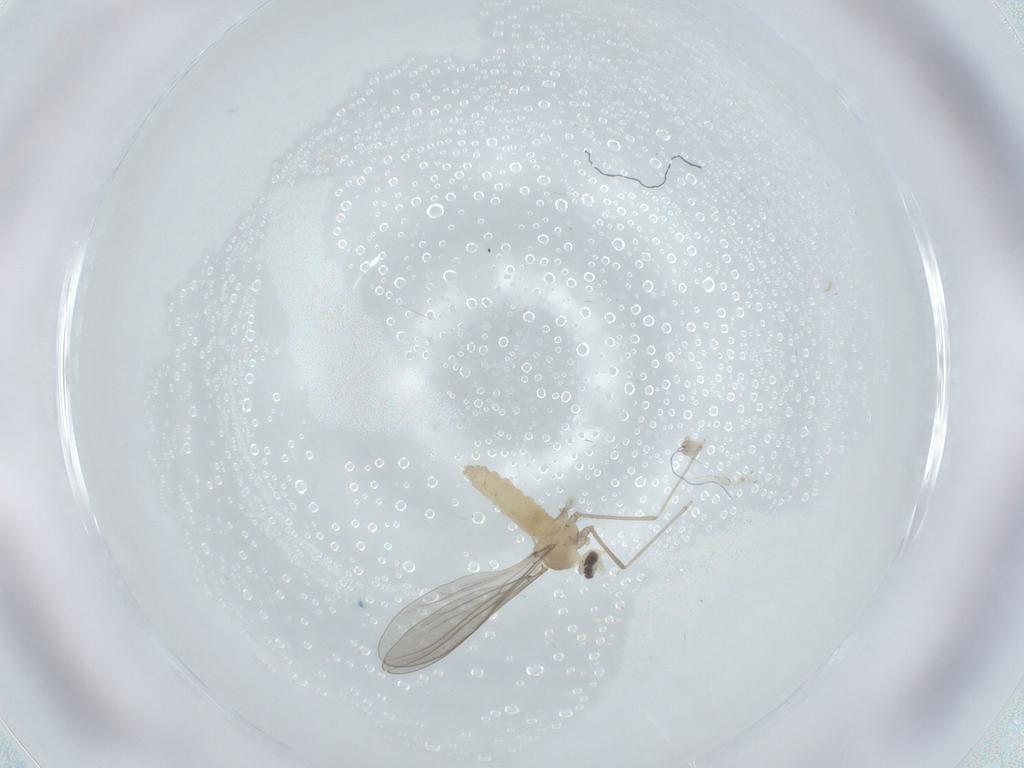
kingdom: Animalia
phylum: Arthropoda
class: Insecta
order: Diptera
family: Cecidomyiidae
